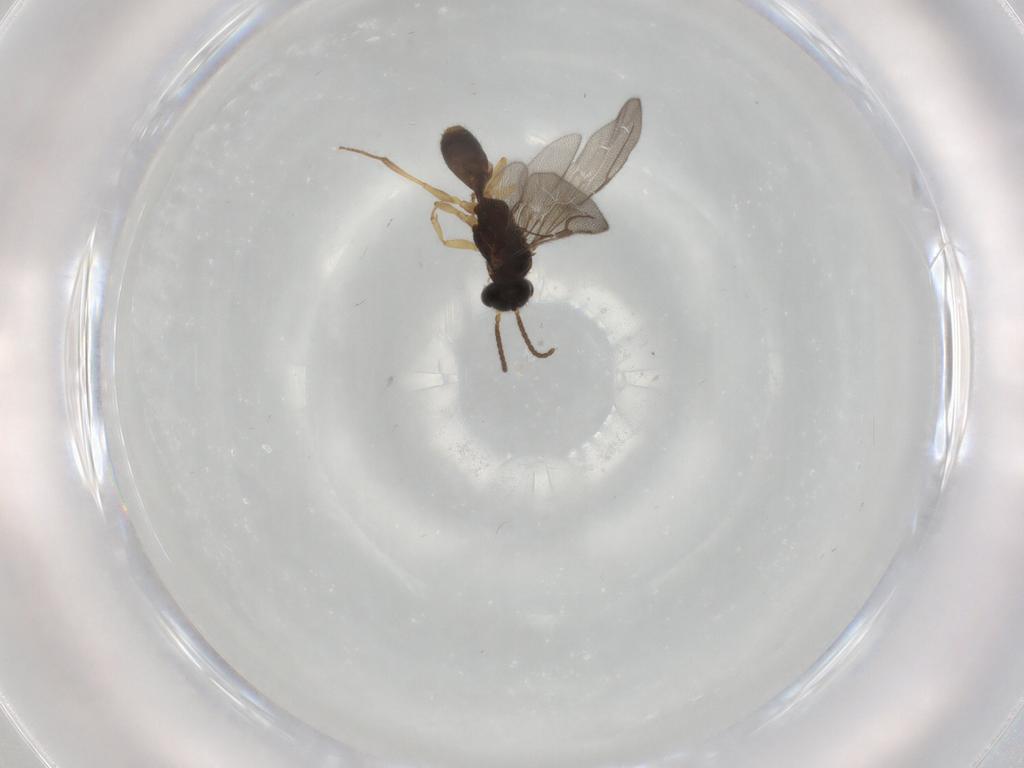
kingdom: Animalia
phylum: Arthropoda
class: Insecta
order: Hymenoptera
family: Bethylidae
